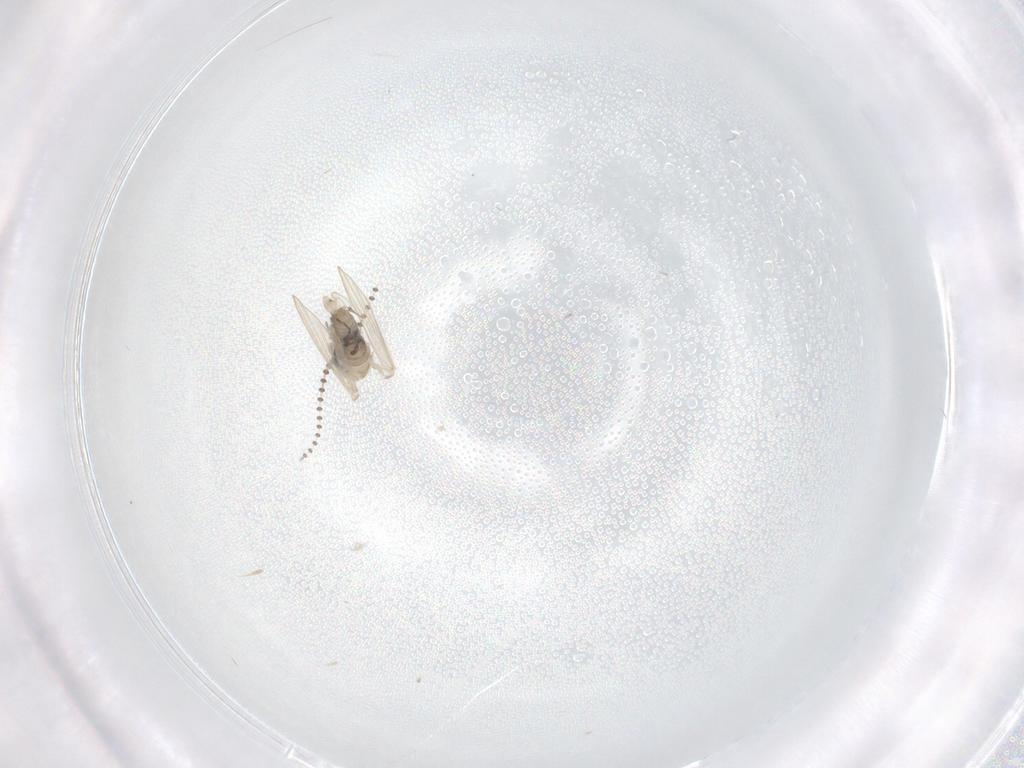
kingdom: Animalia
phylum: Arthropoda
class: Insecta
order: Diptera
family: Psychodidae
